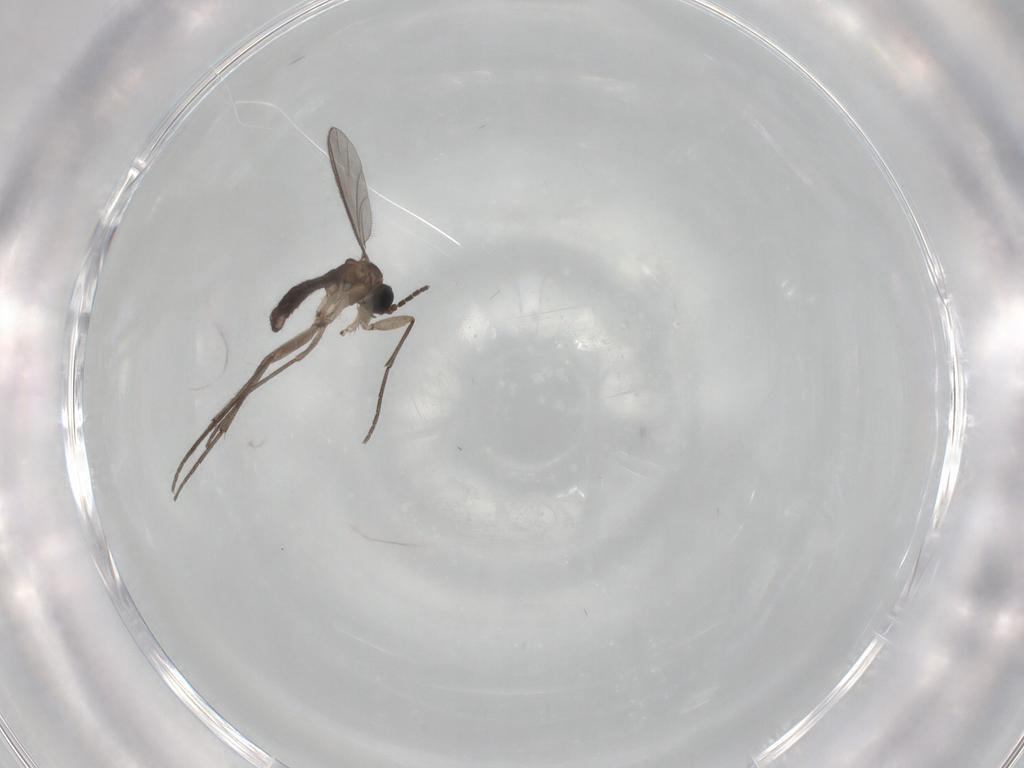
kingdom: Animalia
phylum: Arthropoda
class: Insecta
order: Diptera
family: Sciaridae
